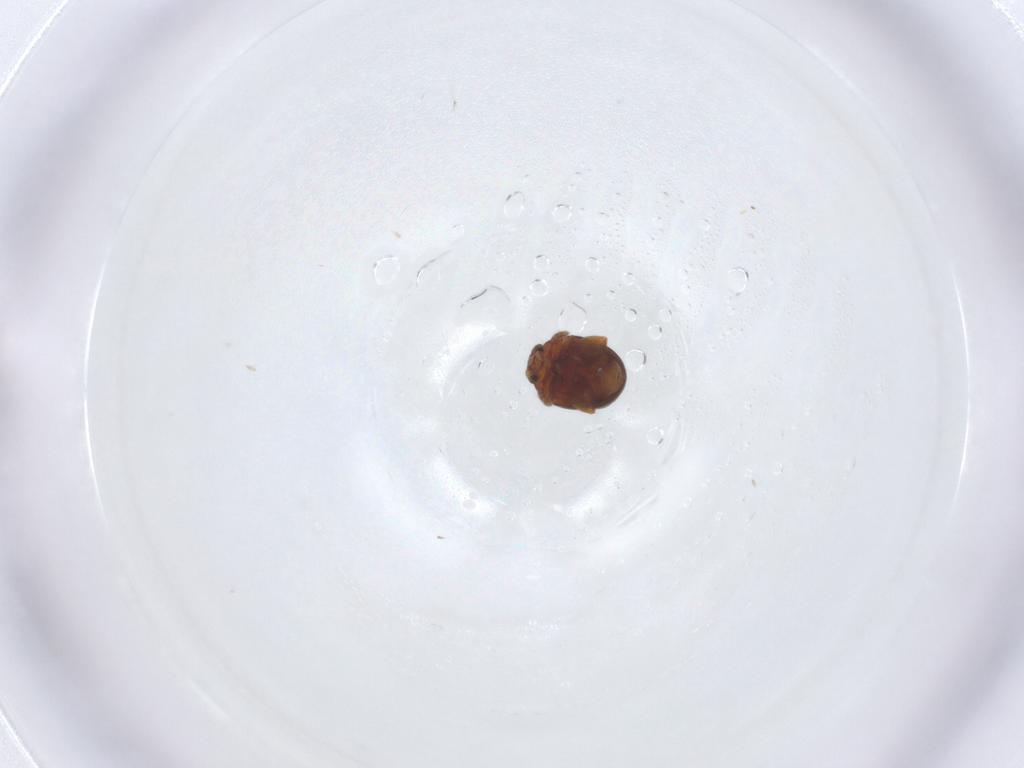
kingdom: Animalia
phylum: Arthropoda
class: Insecta
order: Coleoptera
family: Chrysomelidae
